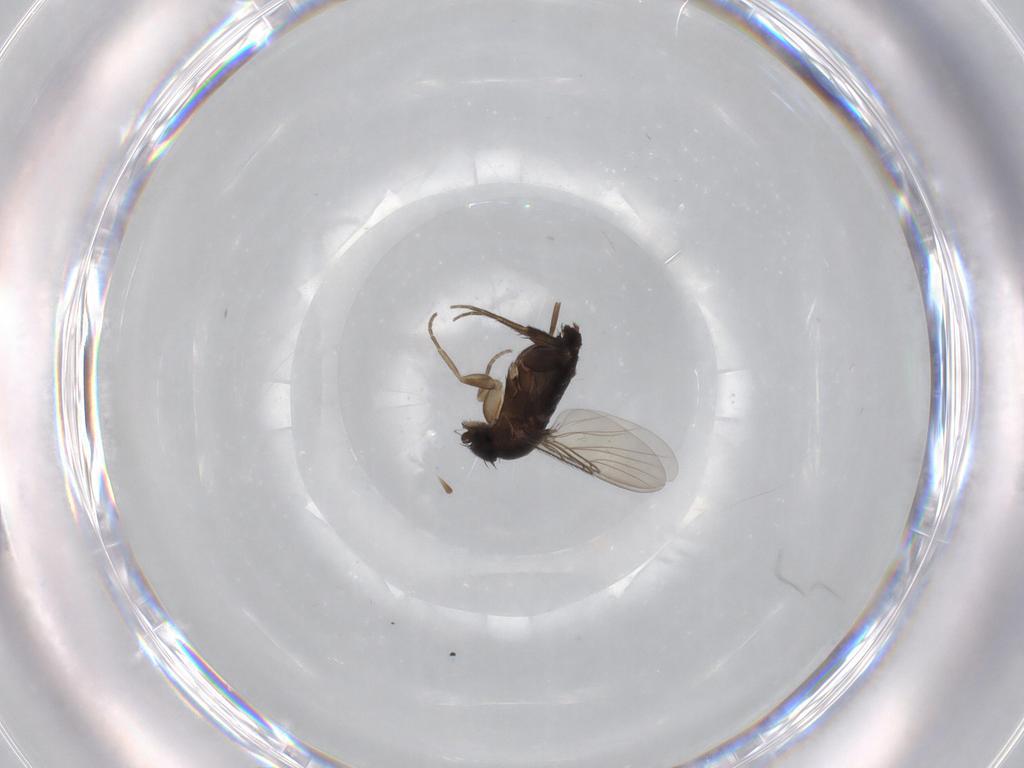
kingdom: Animalia
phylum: Arthropoda
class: Insecta
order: Diptera
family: Phoridae
